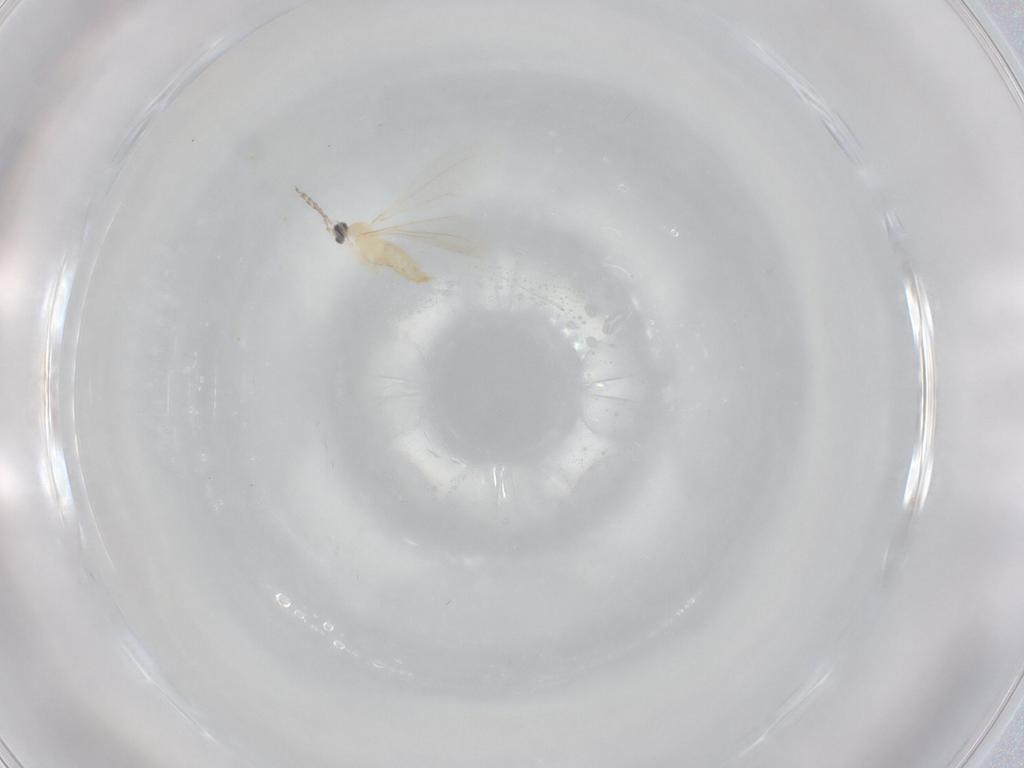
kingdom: Animalia
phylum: Arthropoda
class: Insecta
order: Diptera
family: Cecidomyiidae
